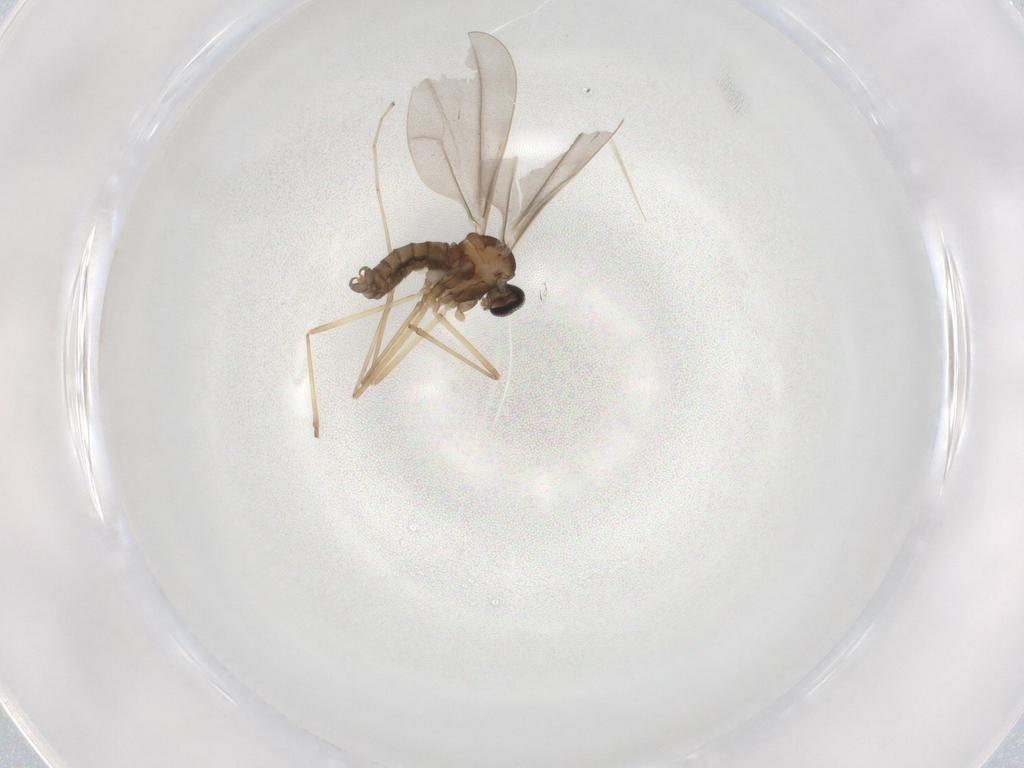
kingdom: Animalia
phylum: Arthropoda
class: Insecta
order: Diptera
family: Cecidomyiidae
